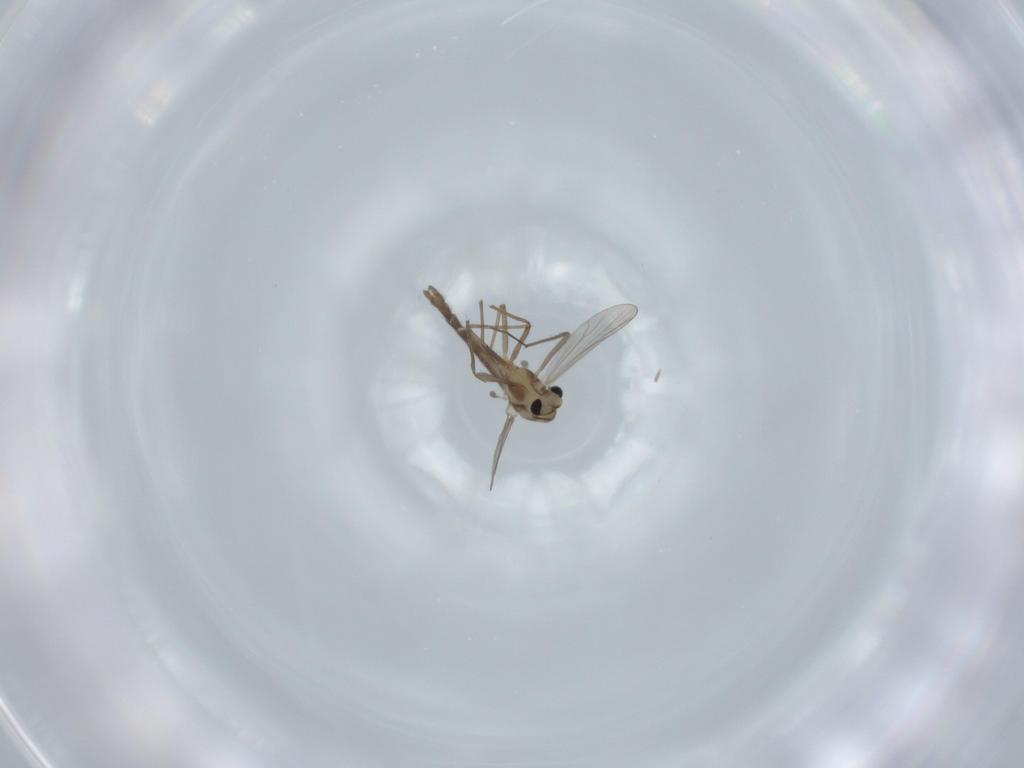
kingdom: Animalia
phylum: Arthropoda
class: Insecta
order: Diptera
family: Chironomidae
